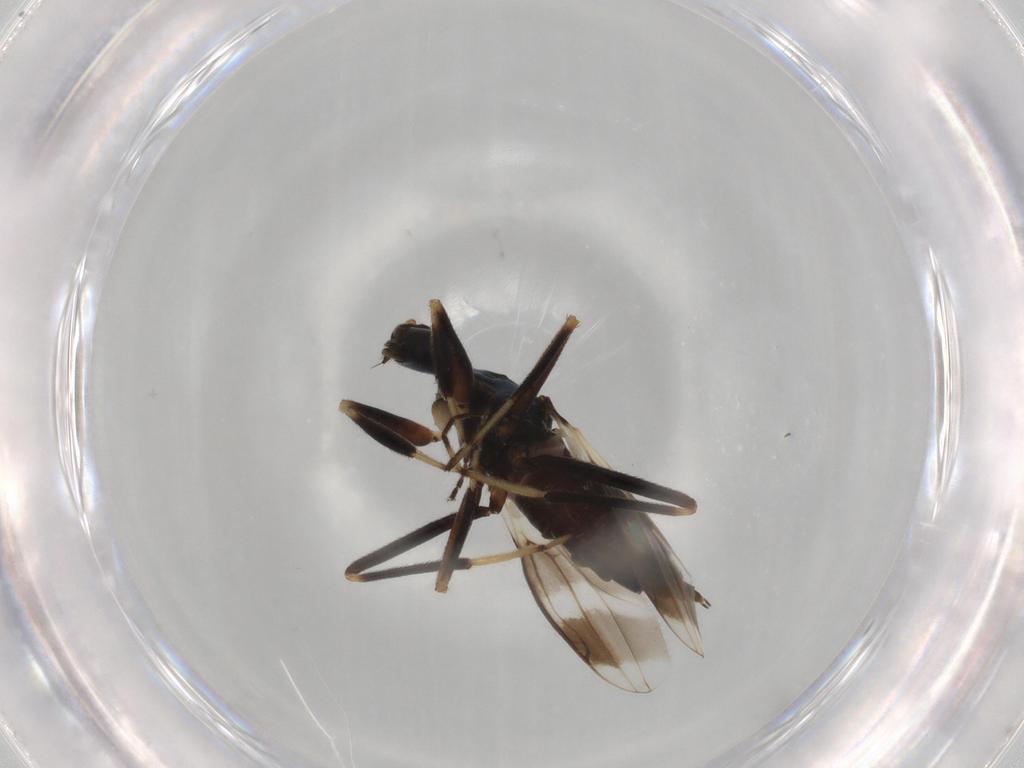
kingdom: Animalia
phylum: Arthropoda
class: Insecta
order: Diptera
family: Hybotidae
